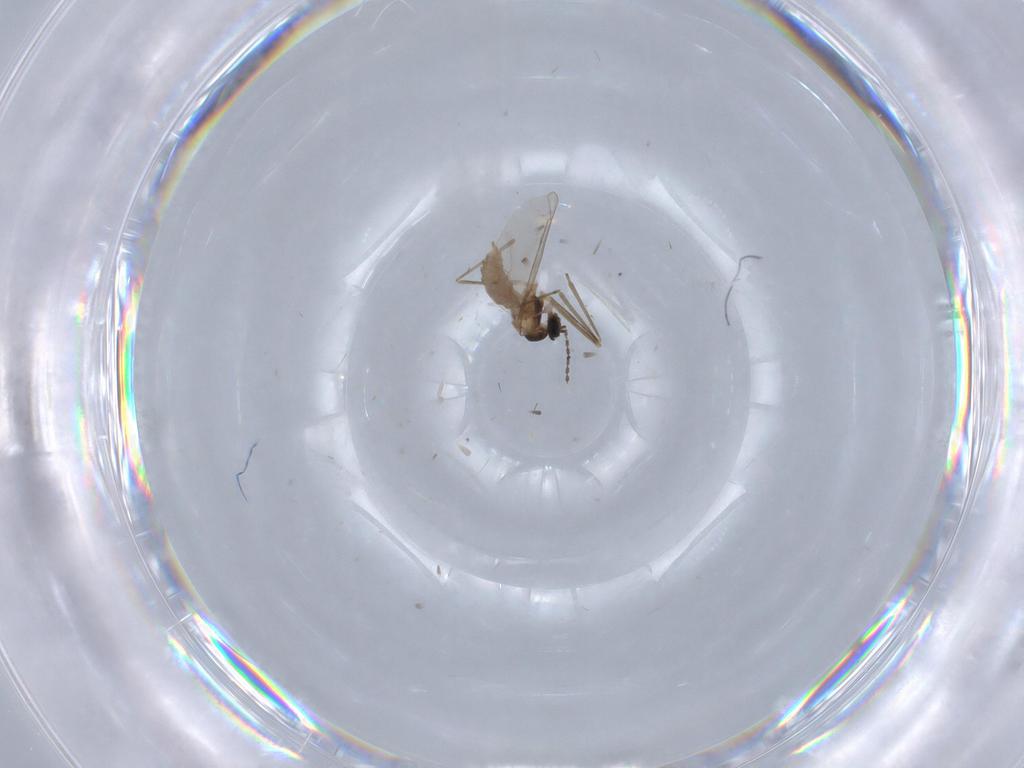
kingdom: Animalia
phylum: Arthropoda
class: Insecta
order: Diptera
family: Cecidomyiidae
